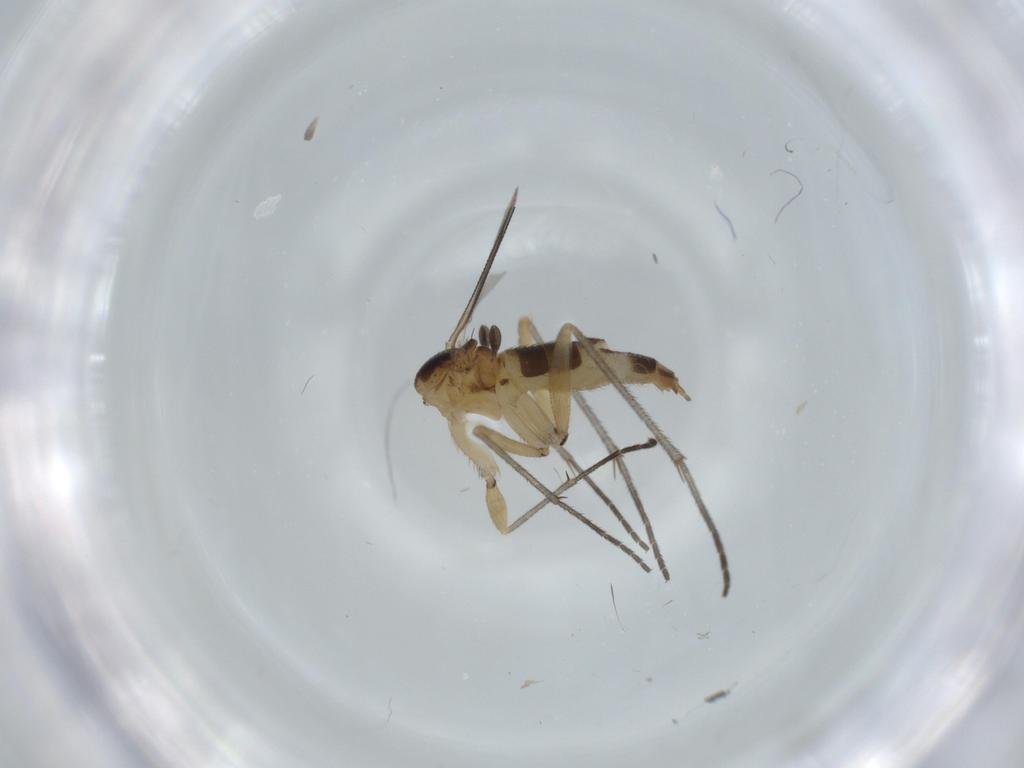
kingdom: Animalia
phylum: Arthropoda
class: Insecta
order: Diptera
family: Sciaridae
